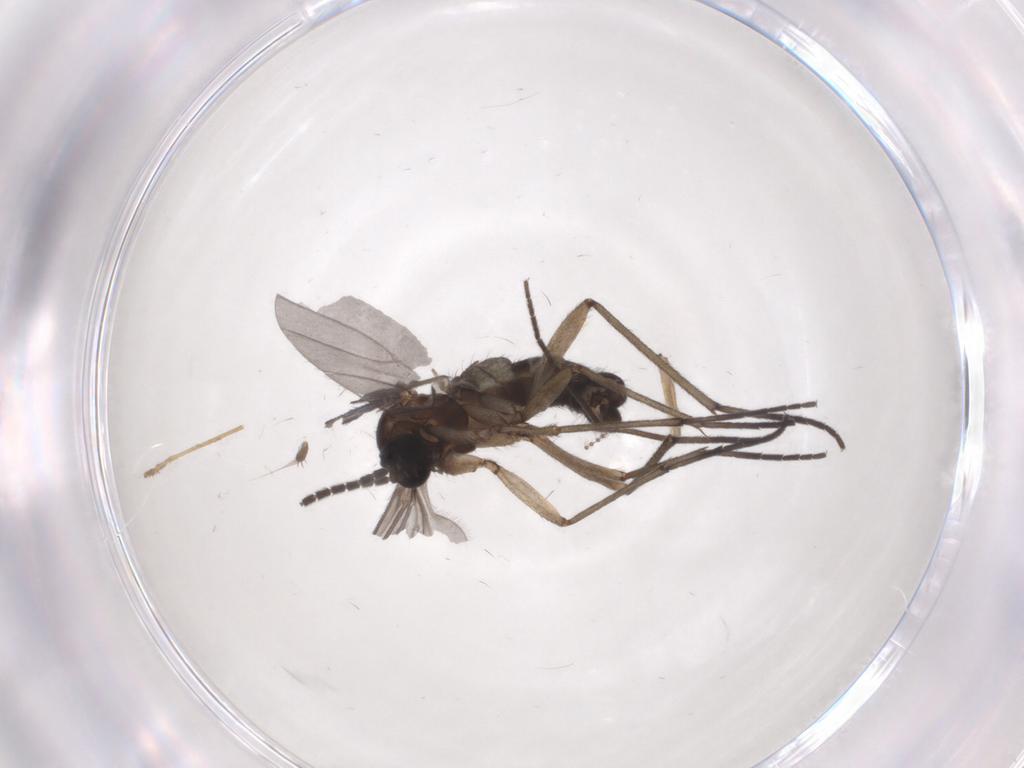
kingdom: Animalia
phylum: Arthropoda
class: Insecta
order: Diptera
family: Sciaridae
